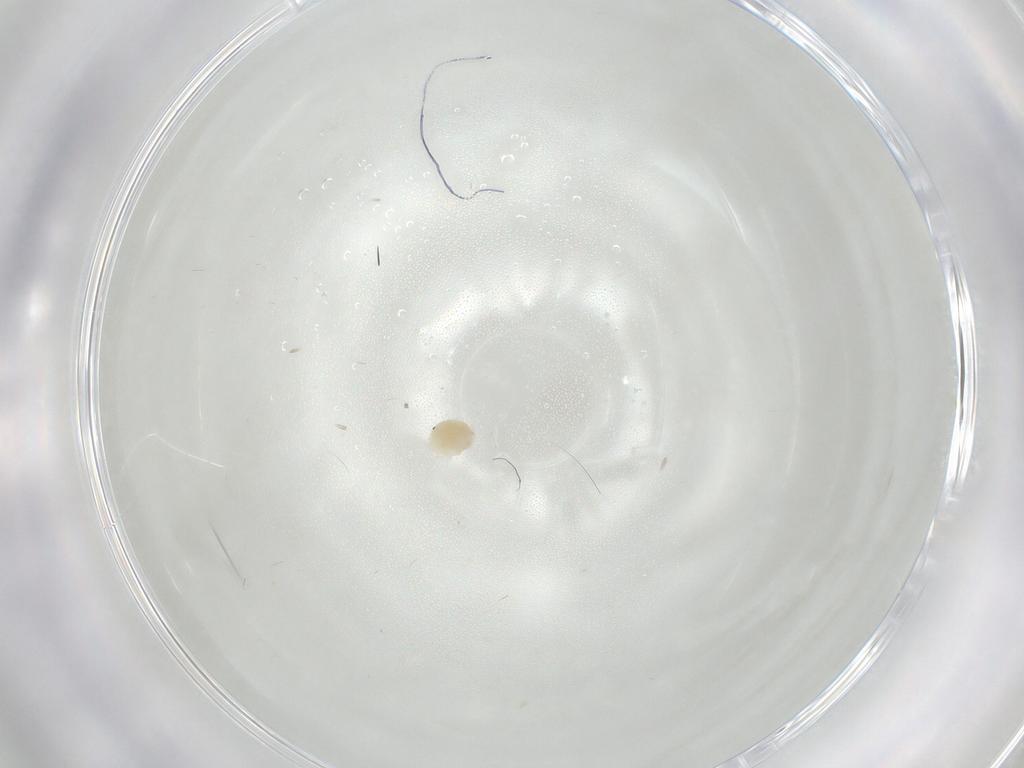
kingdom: Animalia
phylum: Arthropoda
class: Arachnida
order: Trombidiformes
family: Microtrombidiidae
